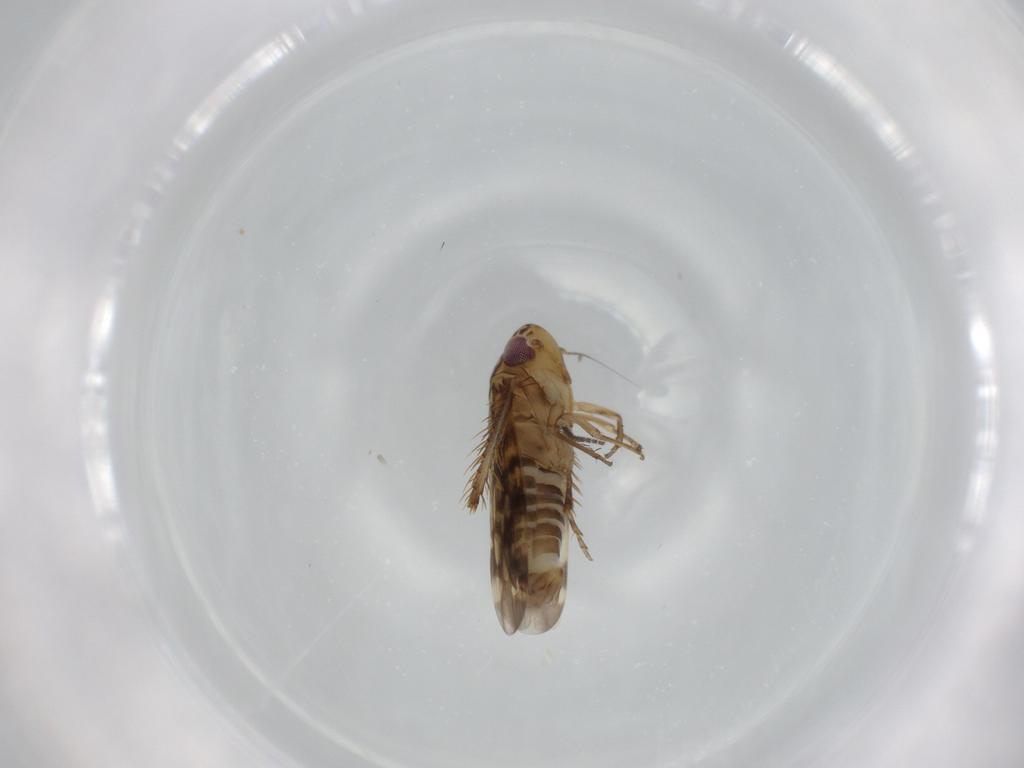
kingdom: Animalia
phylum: Arthropoda
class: Insecta
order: Hemiptera
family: Cicadellidae
